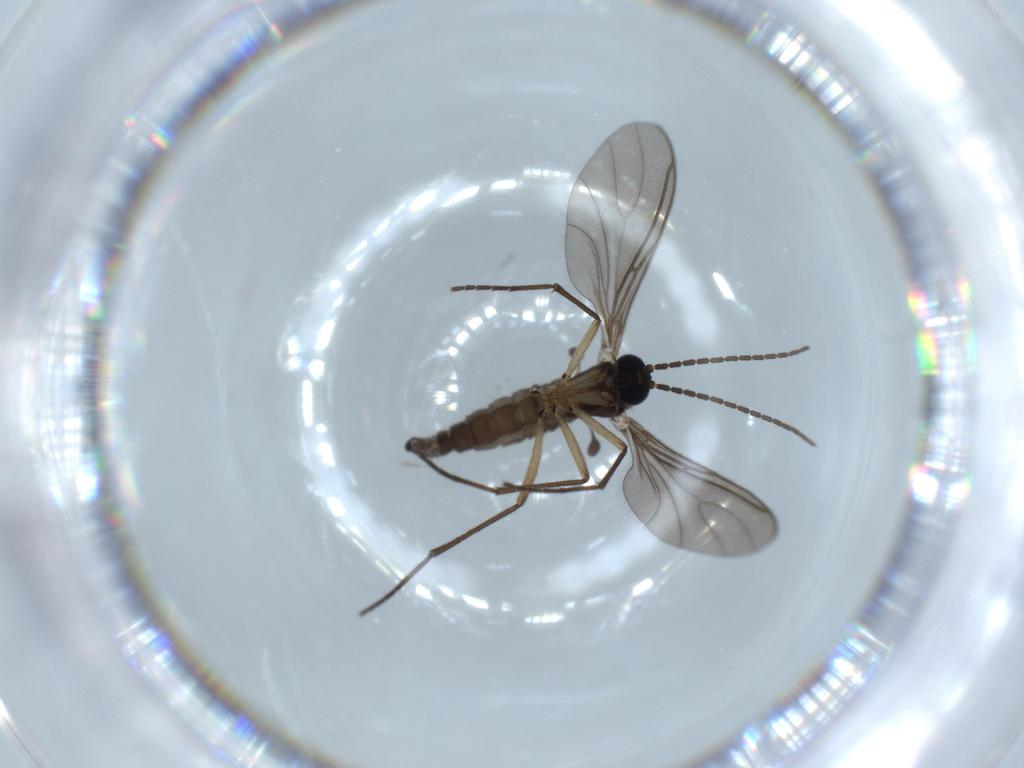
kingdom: Animalia
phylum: Arthropoda
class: Insecta
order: Diptera
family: Sciaridae
